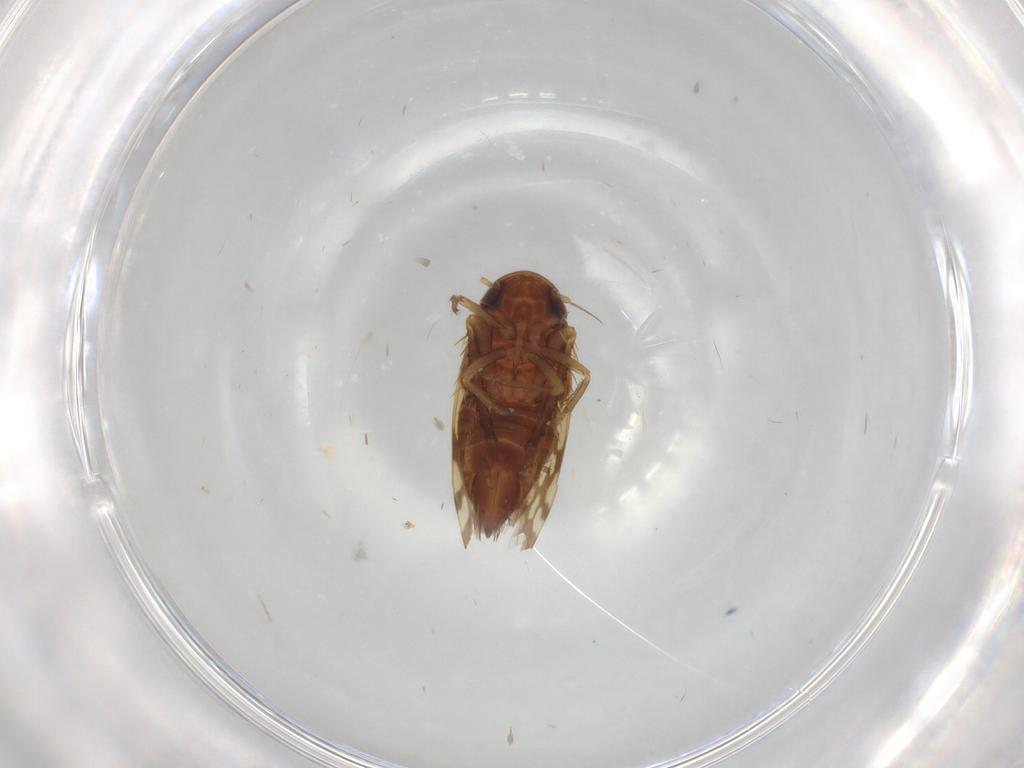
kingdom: Animalia
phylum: Arthropoda
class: Insecta
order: Hemiptera
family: Cicadellidae
